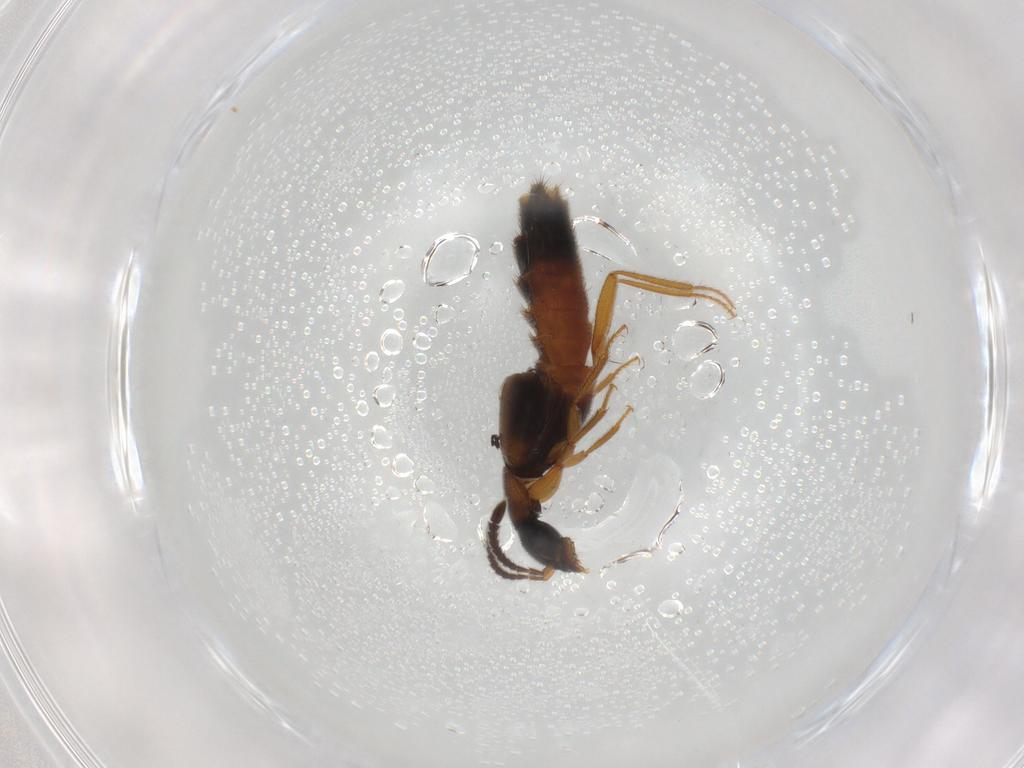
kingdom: Animalia
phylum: Arthropoda
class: Insecta
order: Coleoptera
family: Staphylinidae
